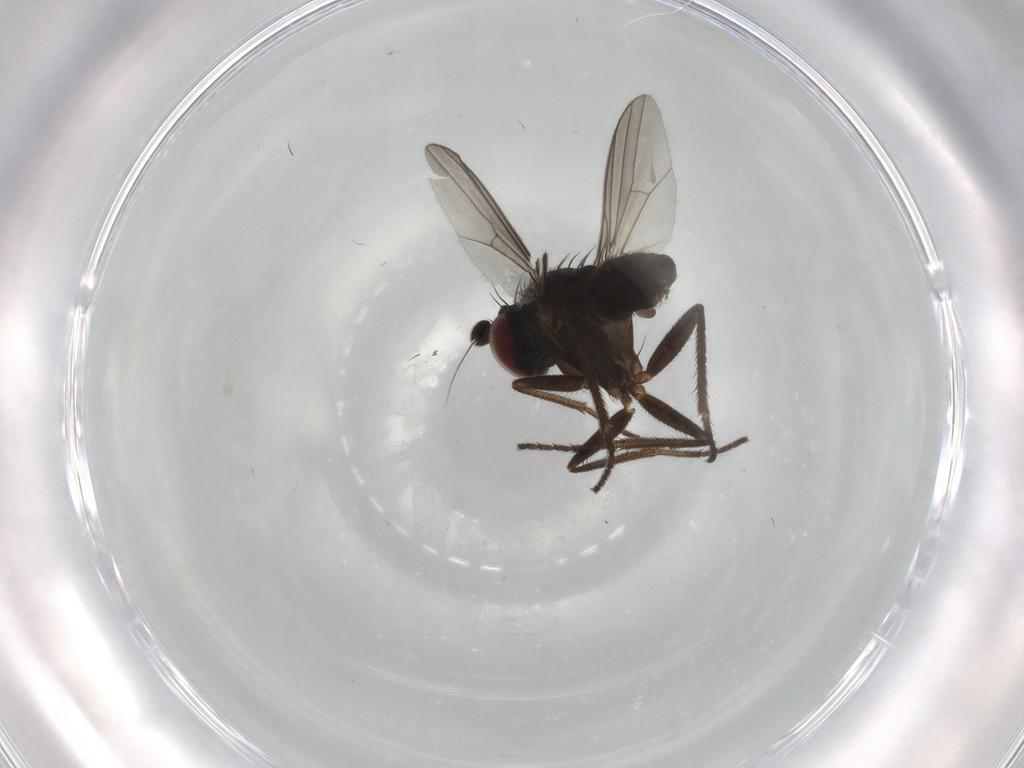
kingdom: Animalia
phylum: Arthropoda
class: Insecta
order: Diptera
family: Dolichopodidae
